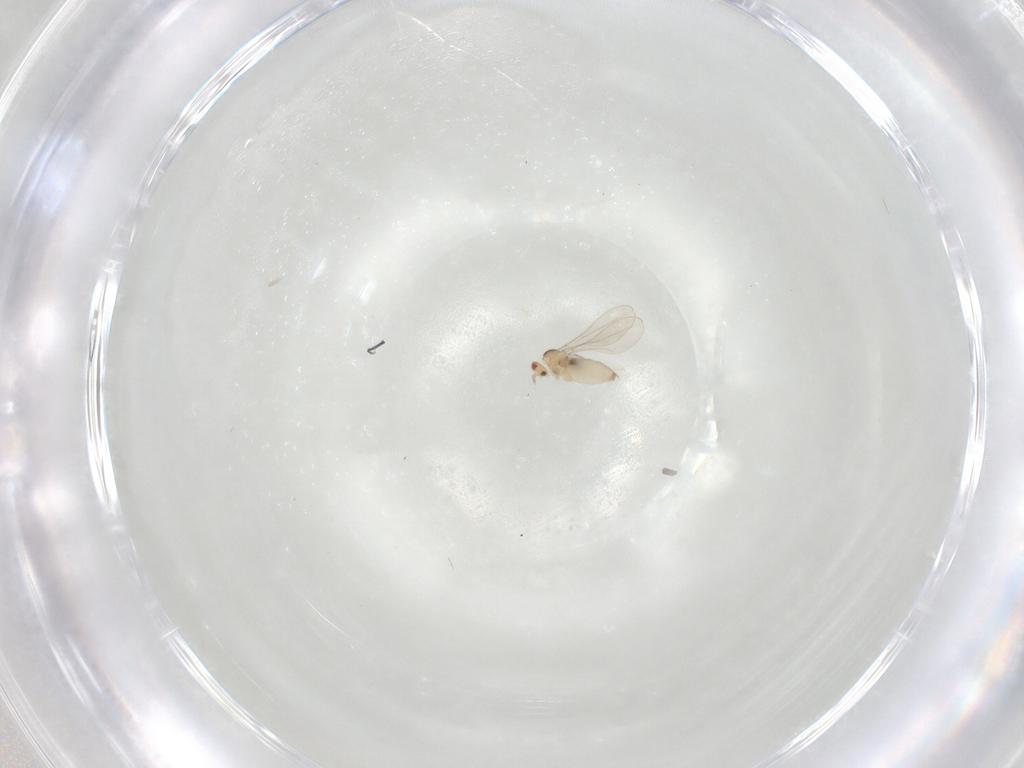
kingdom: Animalia
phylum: Arthropoda
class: Insecta
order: Diptera
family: Cecidomyiidae
